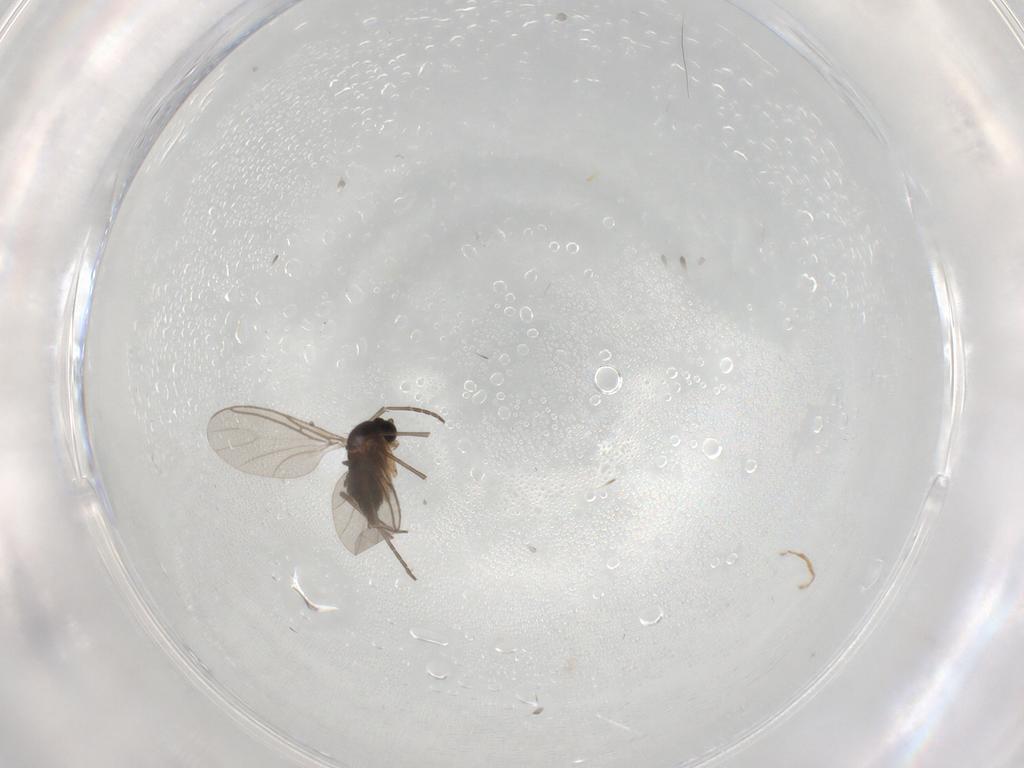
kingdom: Animalia
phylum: Arthropoda
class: Insecta
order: Diptera
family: Sciaridae
